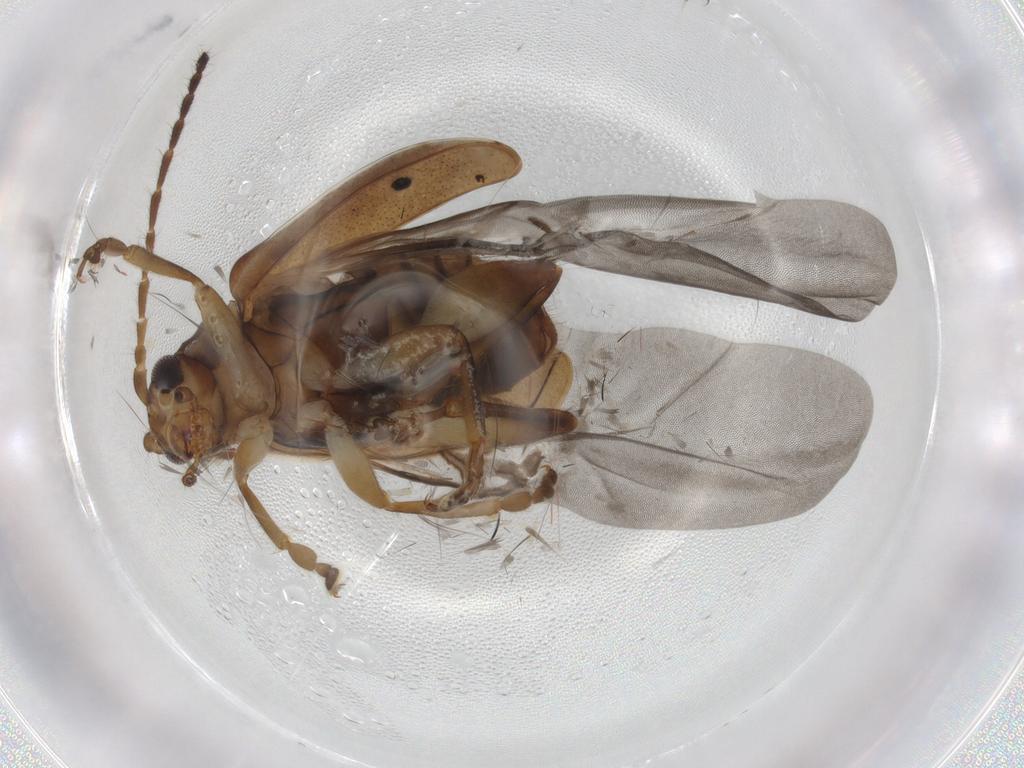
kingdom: Animalia
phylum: Arthropoda
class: Insecta
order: Coleoptera
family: Chrysomelidae
